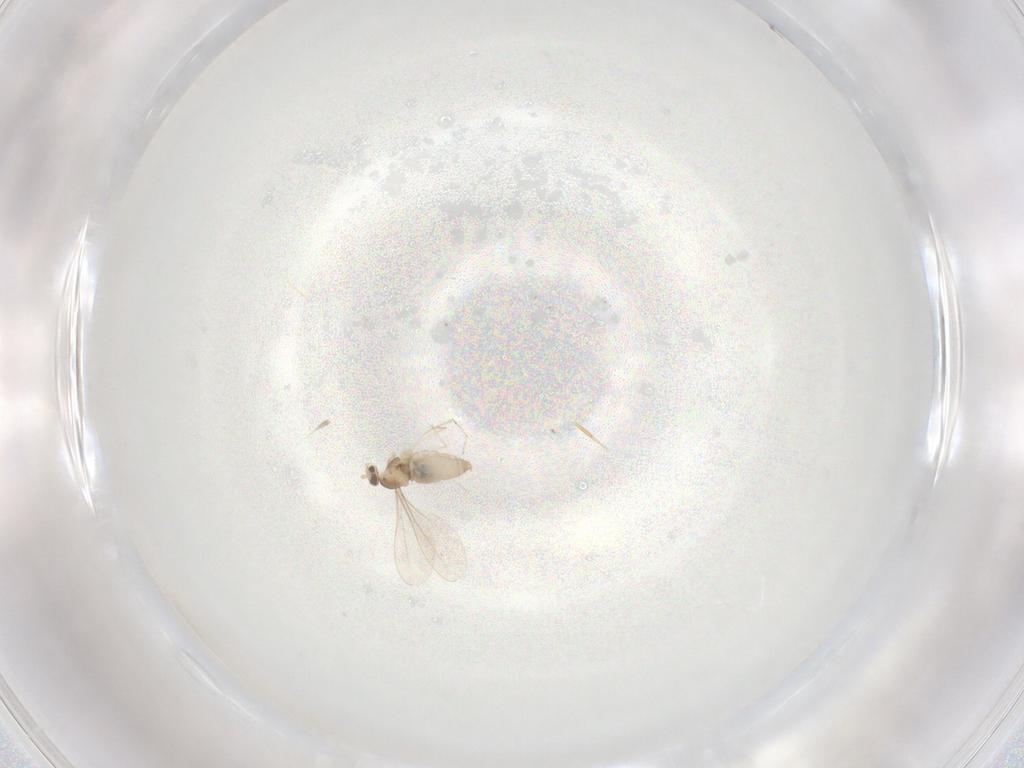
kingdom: Animalia
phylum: Arthropoda
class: Insecta
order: Diptera
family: Cecidomyiidae
